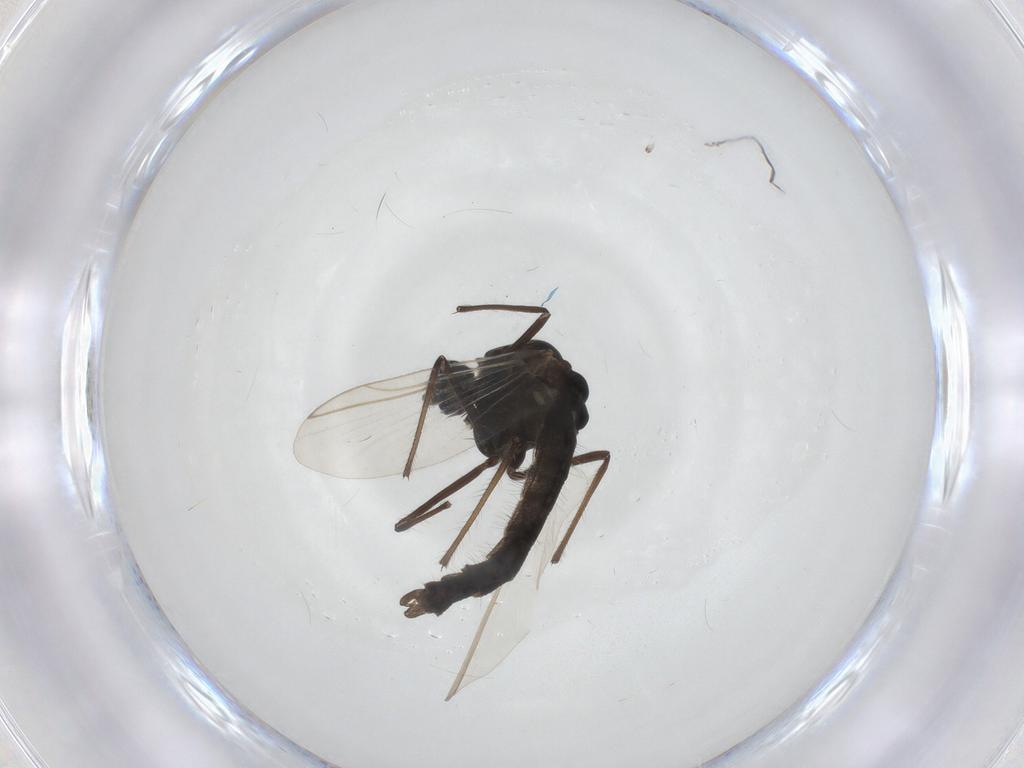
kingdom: Animalia
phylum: Arthropoda
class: Insecta
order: Diptera
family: Chironomidae
